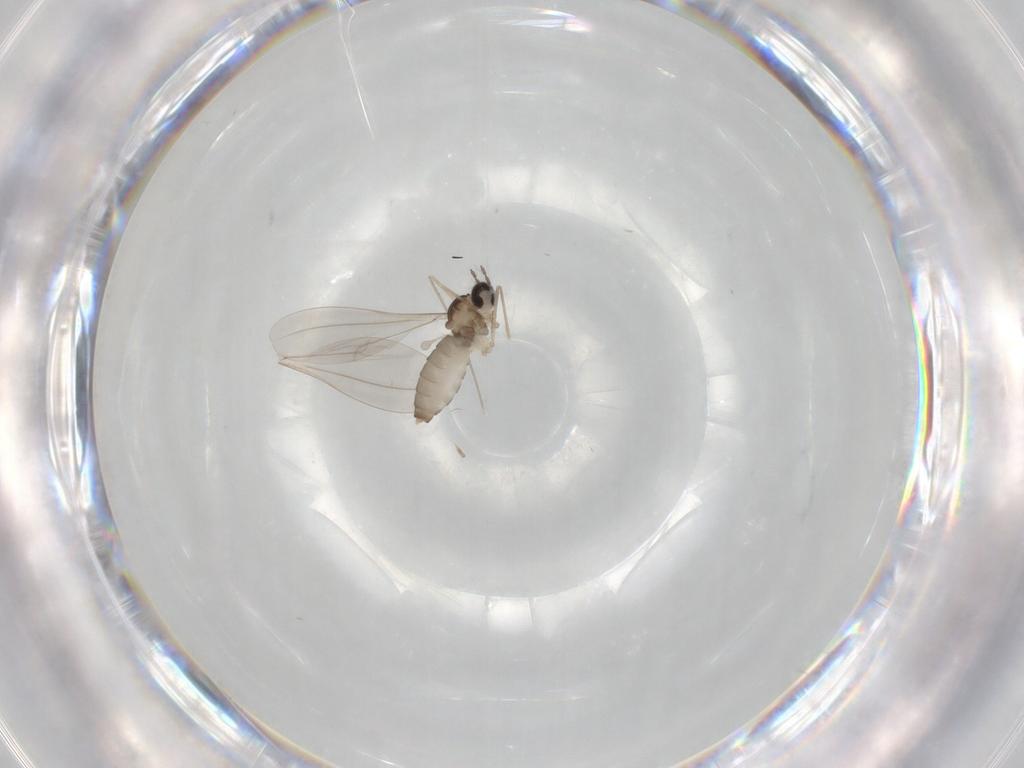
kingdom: Animalia
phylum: Arthropoda
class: Insecta
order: Diptera
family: Cecidomyiidae
